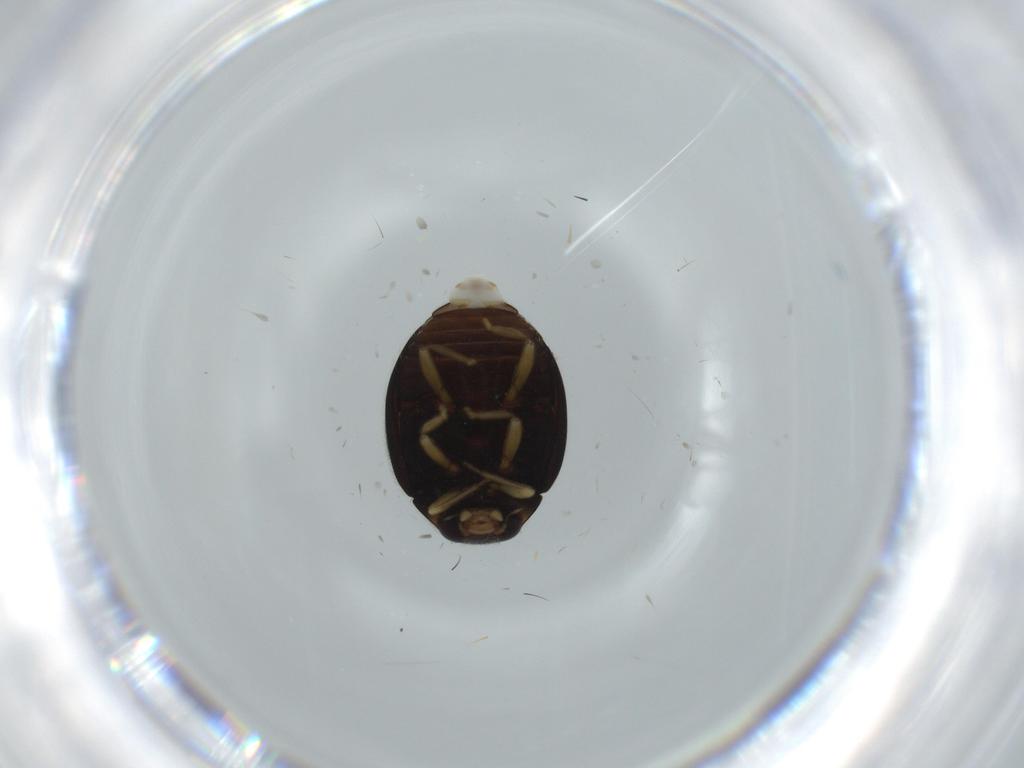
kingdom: Animalia
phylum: Arthropoda
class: Insecta
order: Coleoptera
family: Coccinellidae
